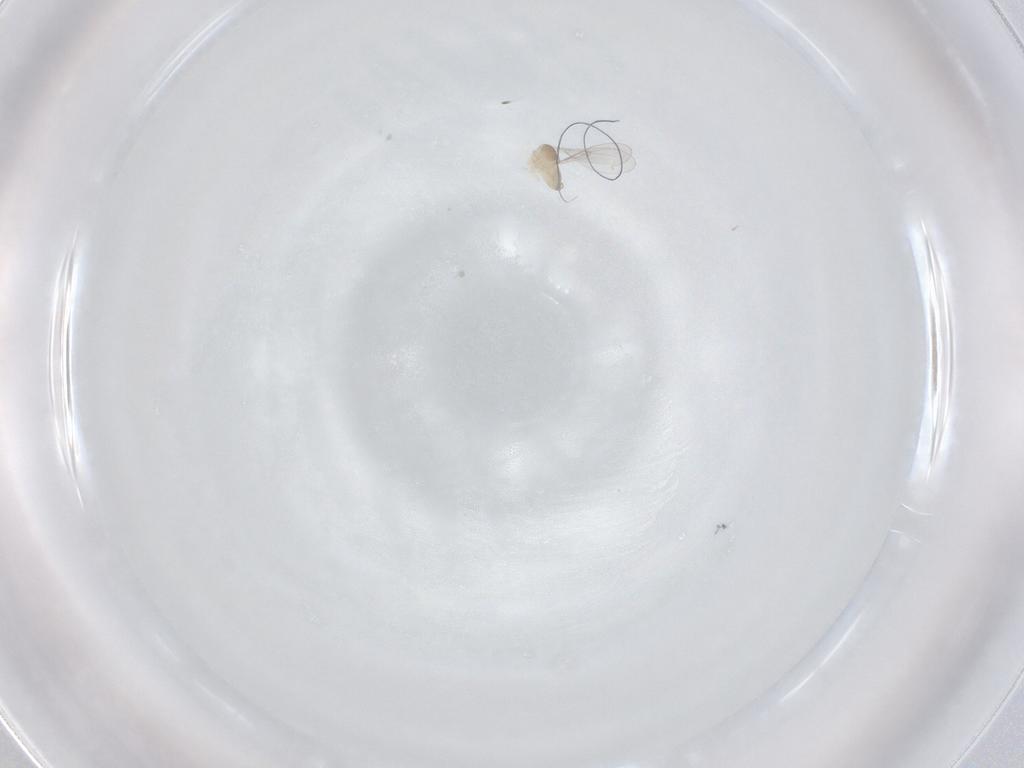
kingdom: Animalia
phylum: Arthropoda
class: Insecta
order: Diptera
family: Cecidomyiidae
